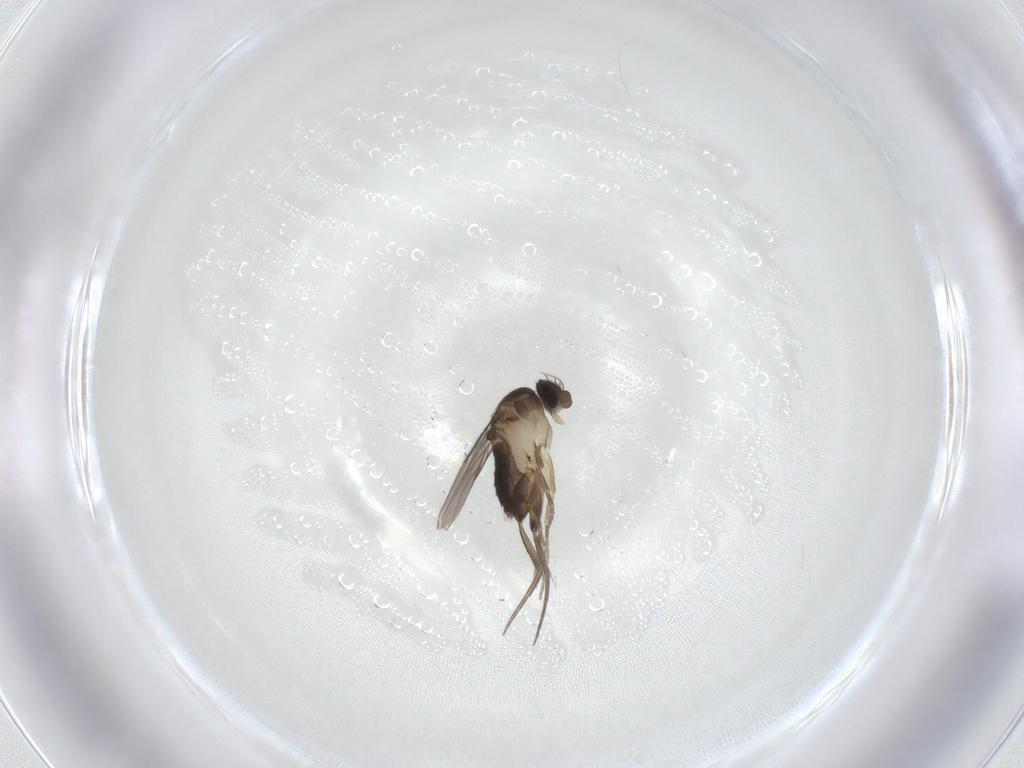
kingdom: Animalia
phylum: Arthropoda
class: Insecta
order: Diptera
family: Phoridae
